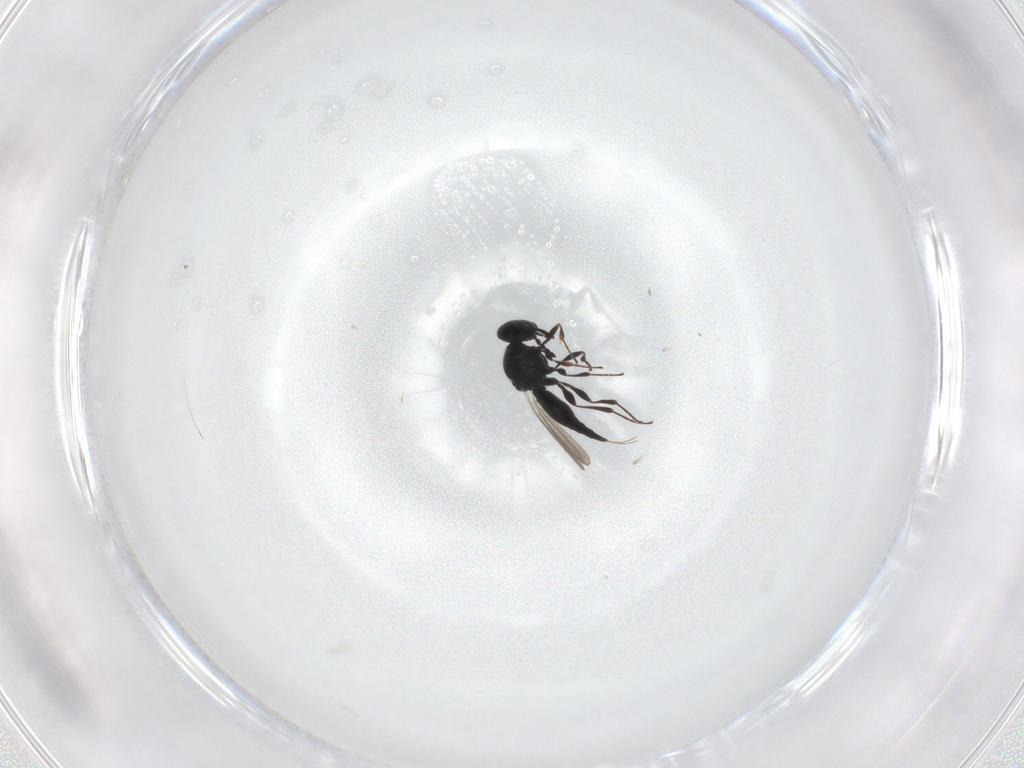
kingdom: Animalia
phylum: Arthropoda
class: Insecta
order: Hymenoptera
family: Platygastridae
